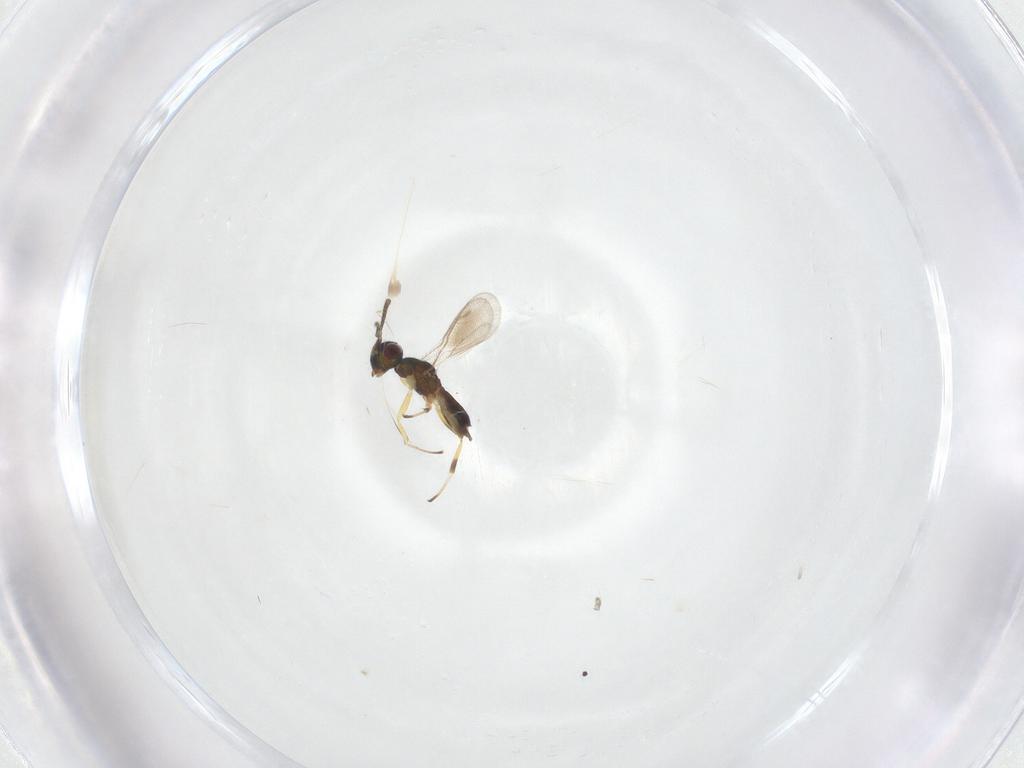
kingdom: Animalia
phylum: Arthropoda
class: Insecta
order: Hymenoptera
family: Eupelmidae
